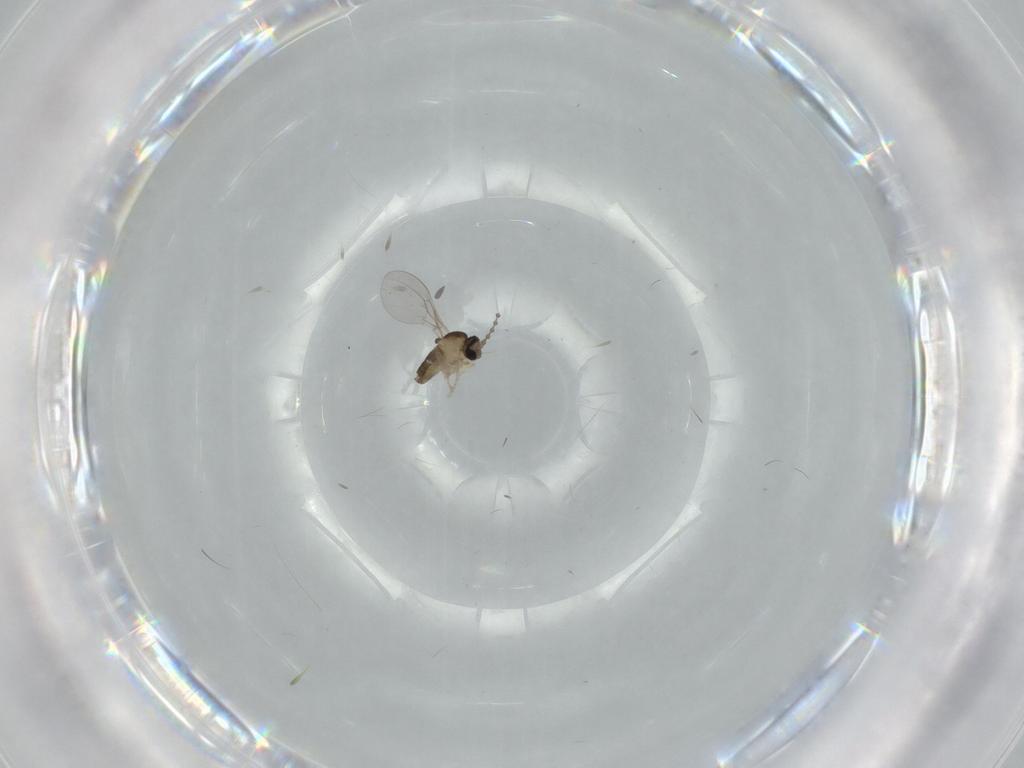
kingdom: Animalia
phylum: Arthropoda
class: Insecta
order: Diptera
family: Cecidomyiidae
